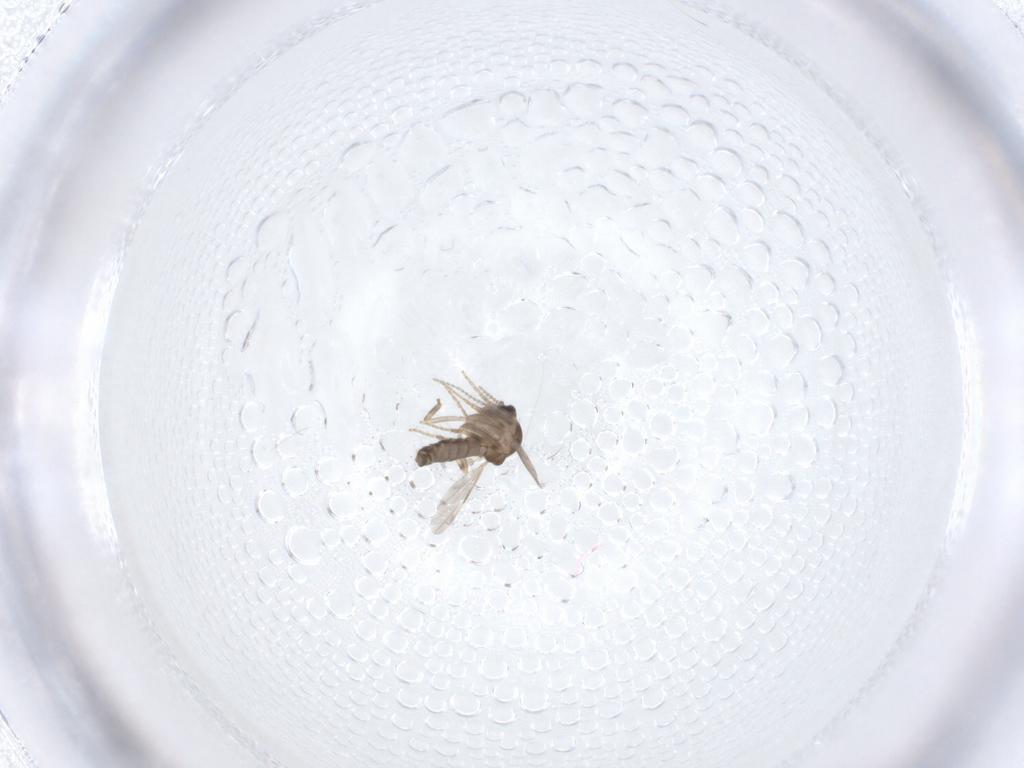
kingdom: Animalia
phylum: Arthropoda
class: Insecta
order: Diptera
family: Ceratopogonidae
